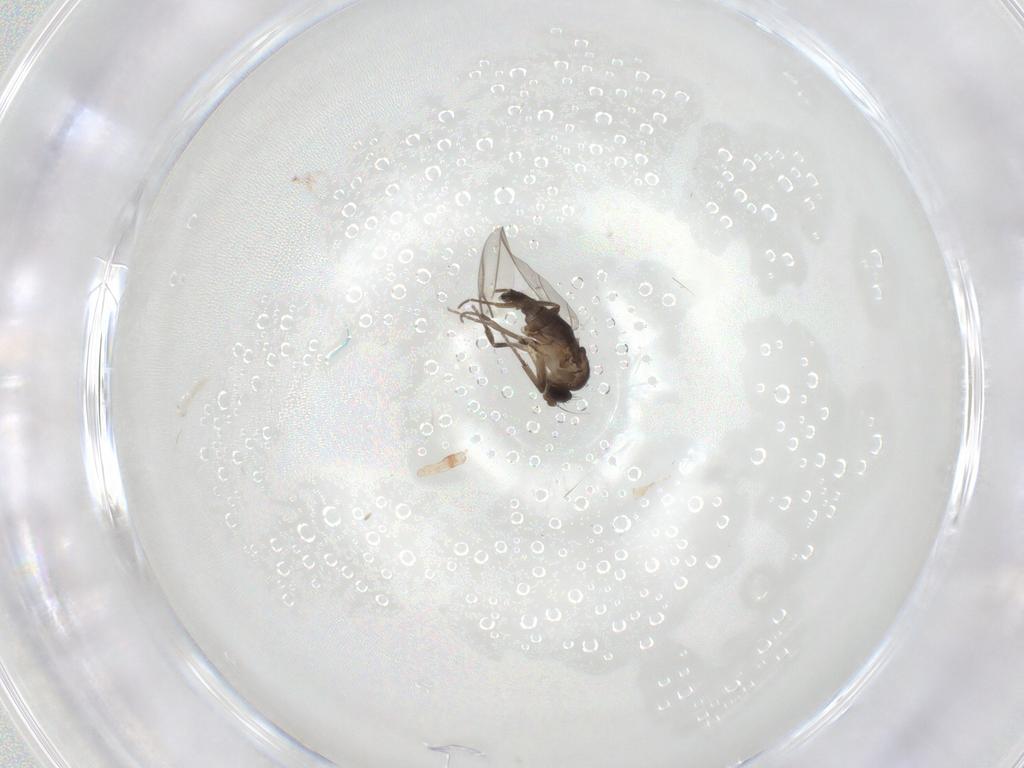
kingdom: Animalia
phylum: Arthropoda
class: Insecta
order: Diptera
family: Phoridae
